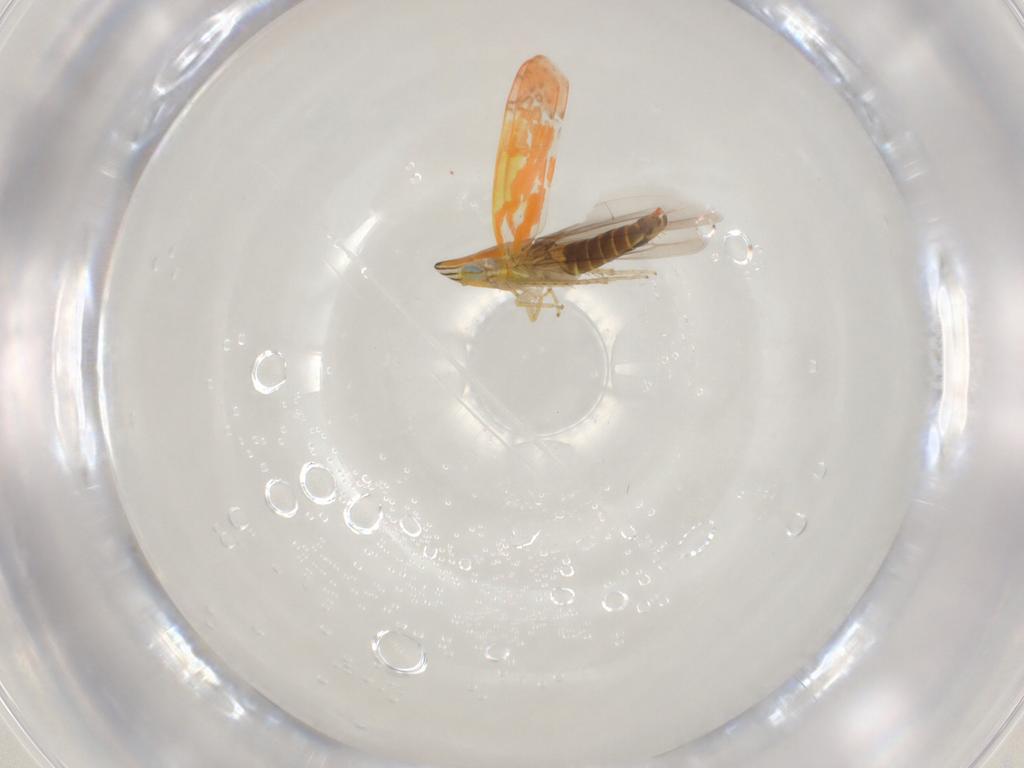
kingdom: Animalia
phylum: Arthropoda
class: Insecta
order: Hemiptera
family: Cicadellidae
